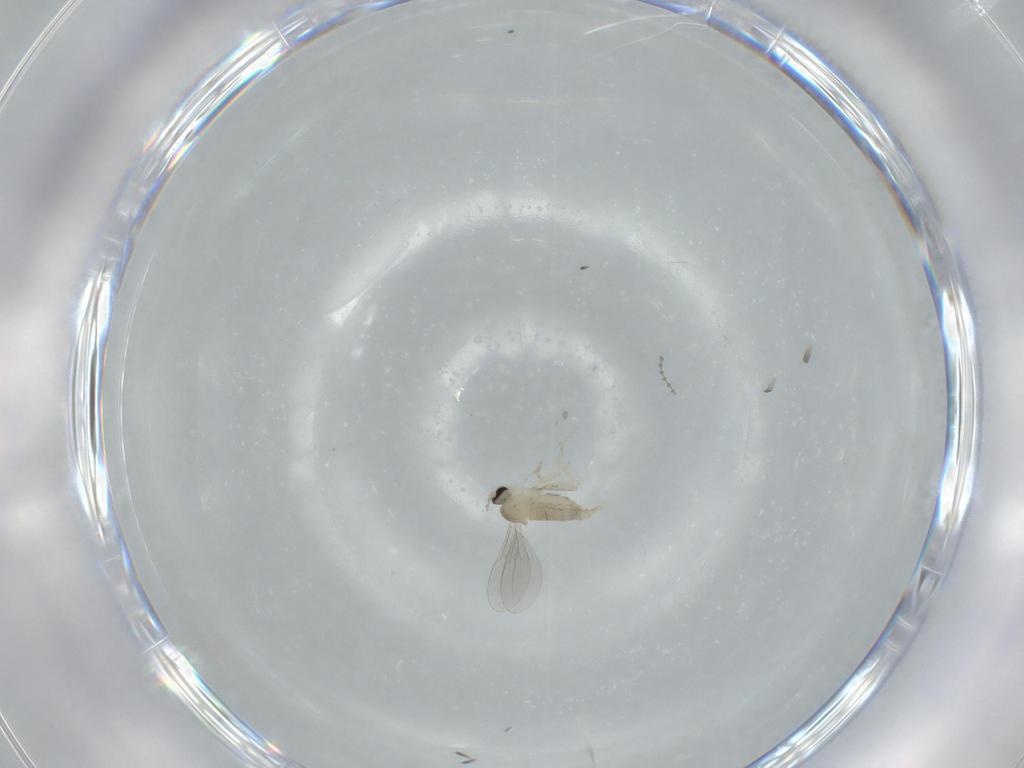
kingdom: Animalia
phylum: Arthropoda
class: Insecta
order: Diptera
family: Cecidomyiidae
